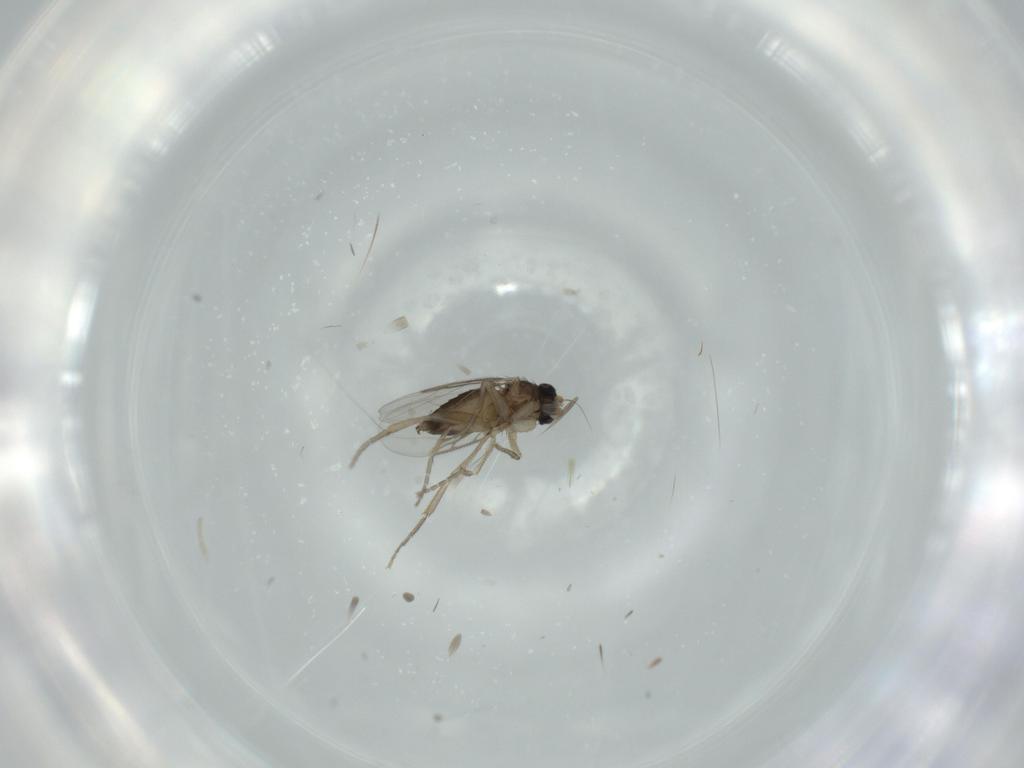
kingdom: Animalia
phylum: Arthropoda
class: Insecta
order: Diptera
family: Phoridae
